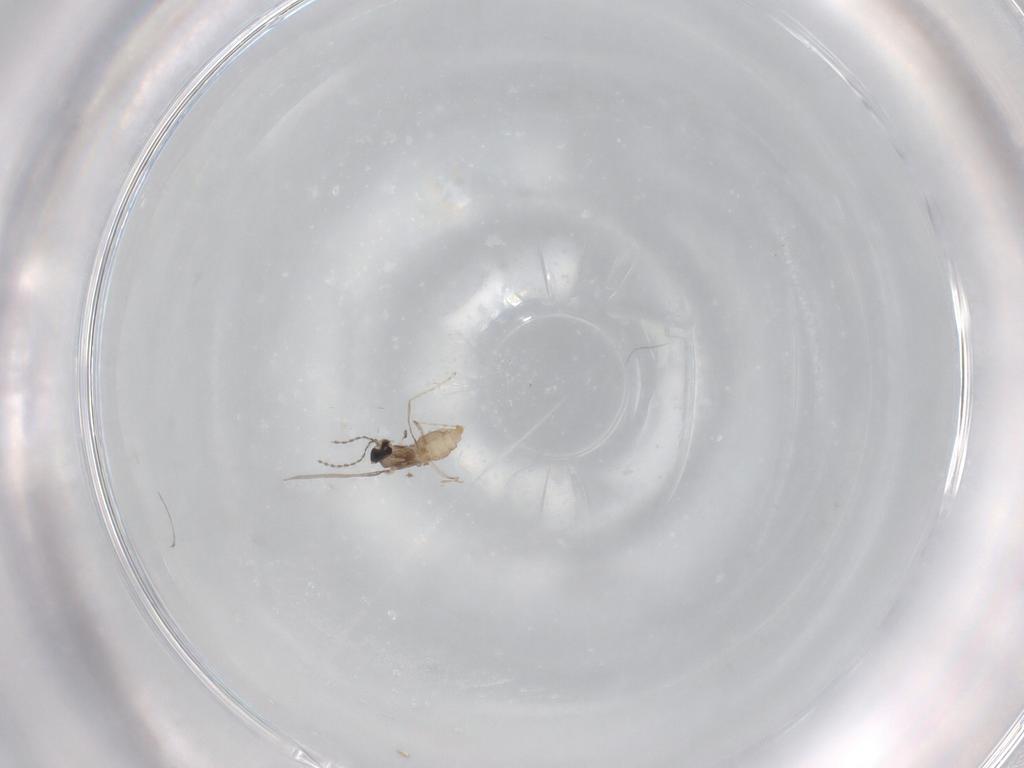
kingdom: Animalia
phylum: Arthropoda
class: Insecta
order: Diptera
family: Cecidomyiidae
